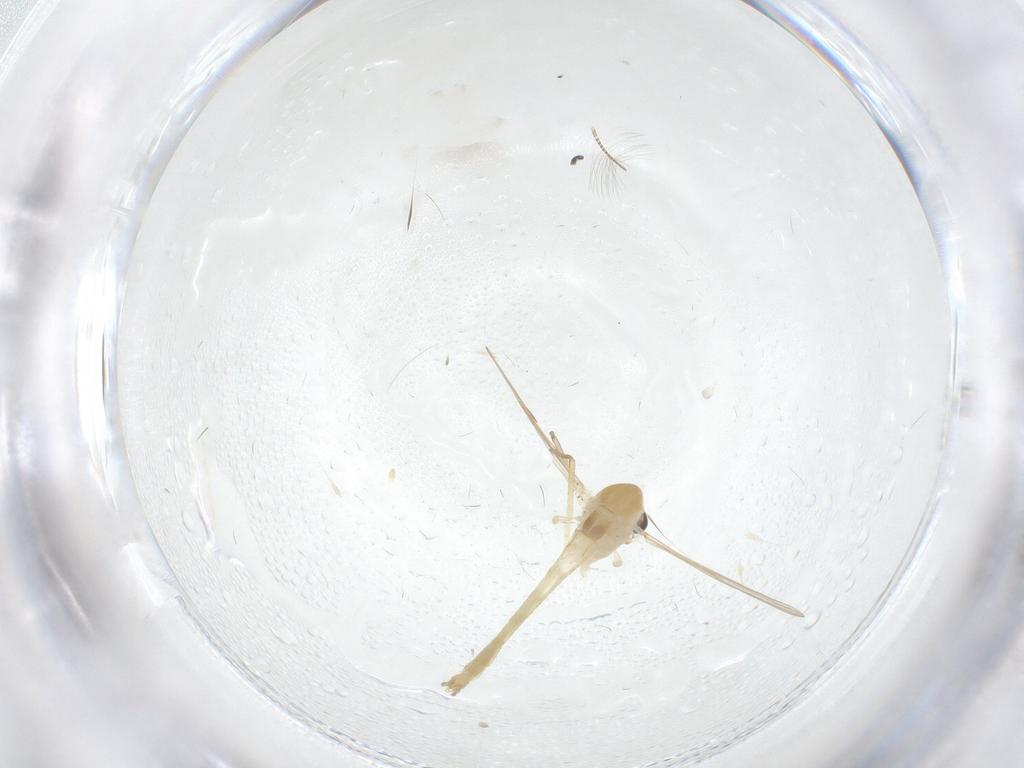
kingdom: Animalia
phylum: Arthropoda
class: Insecta
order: Diptera
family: Chironomidae
